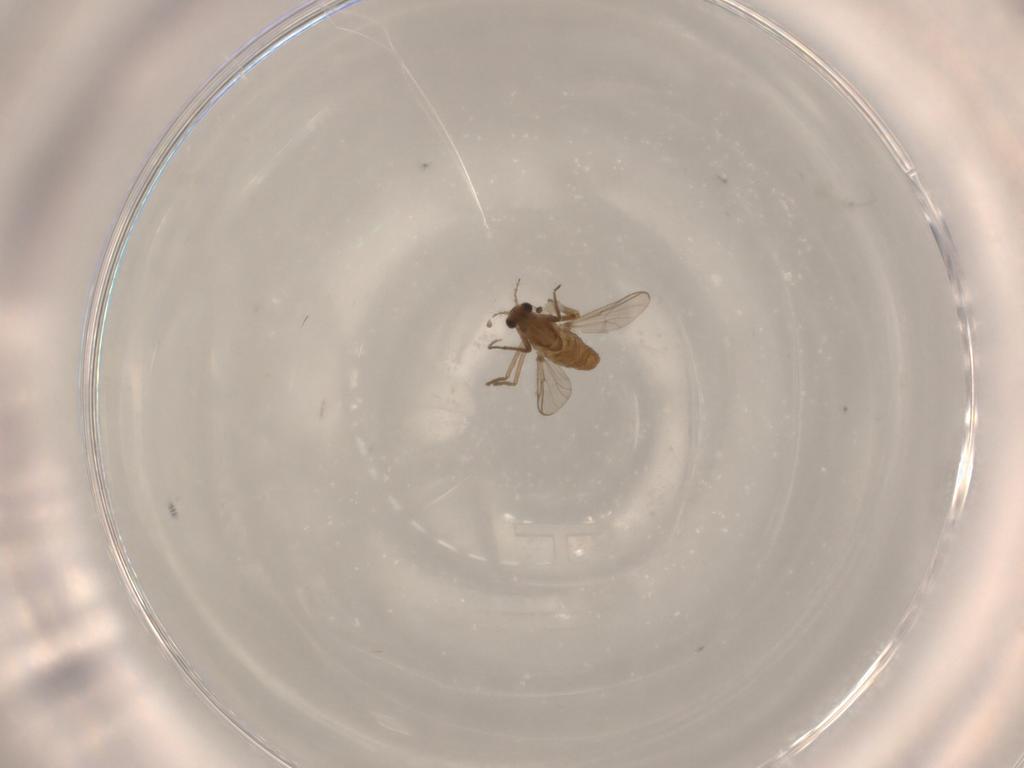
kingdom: Animalia
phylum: Arthropoda
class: Insecta
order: Diptera
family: Chironomidae
